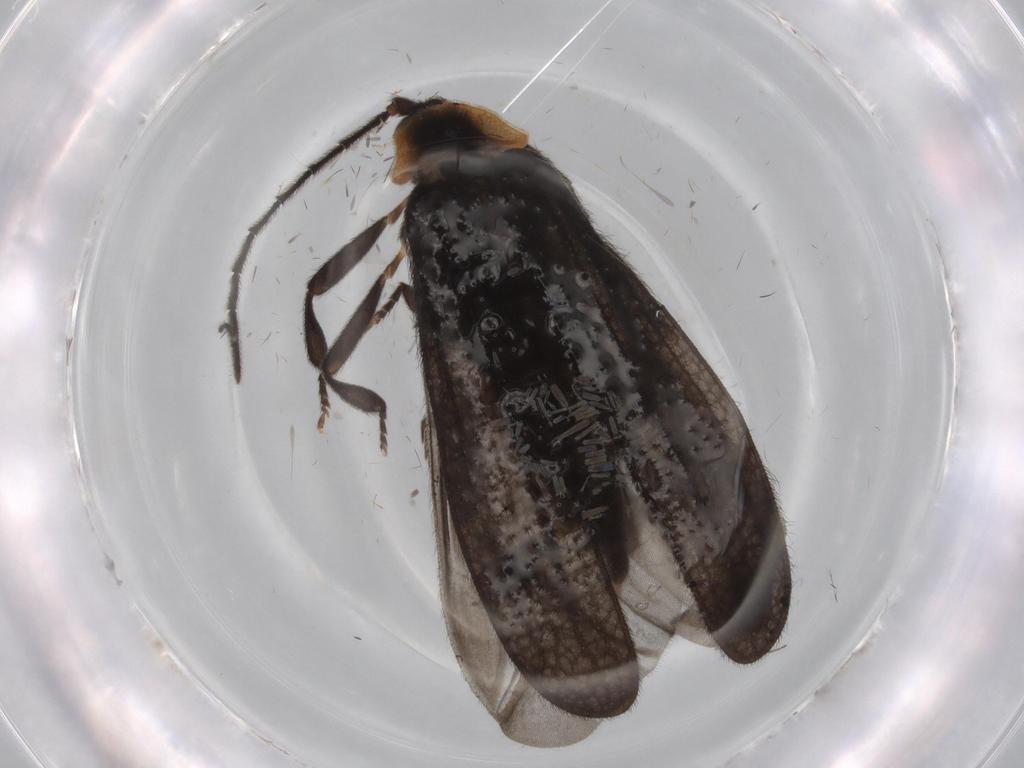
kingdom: Animalia
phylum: Arthropoda
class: Insecta
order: Coleoptera
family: Lycidae
